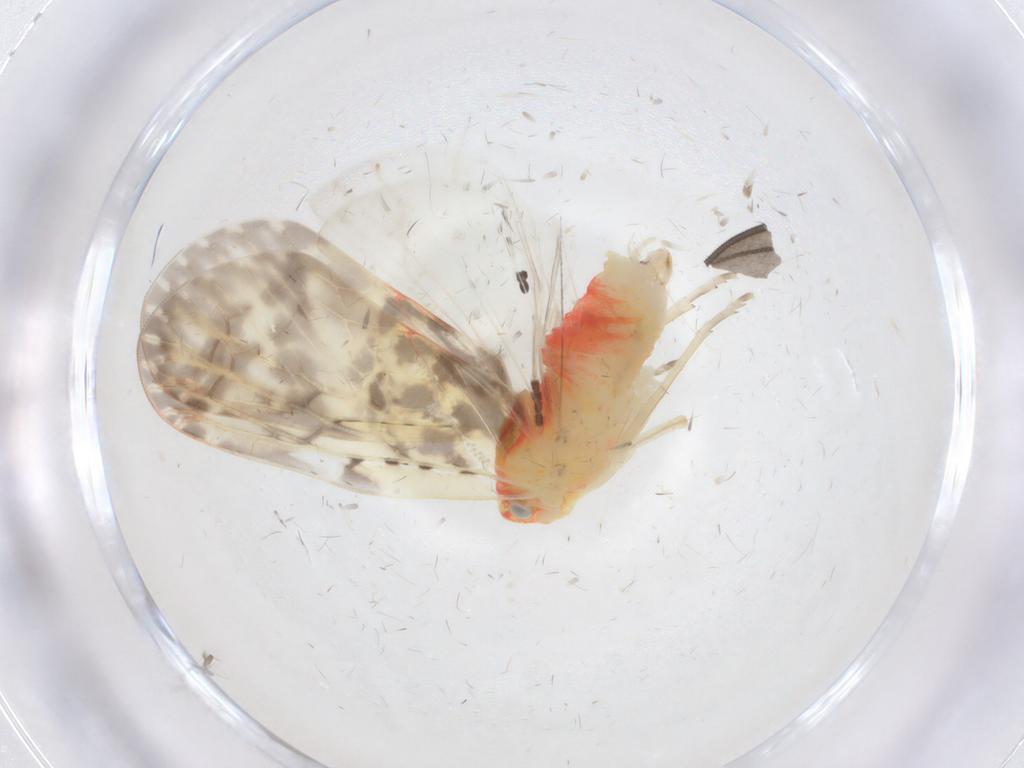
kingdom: Animalia
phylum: Arthropoda
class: Insecta
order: Hemiptera
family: Derbidae
